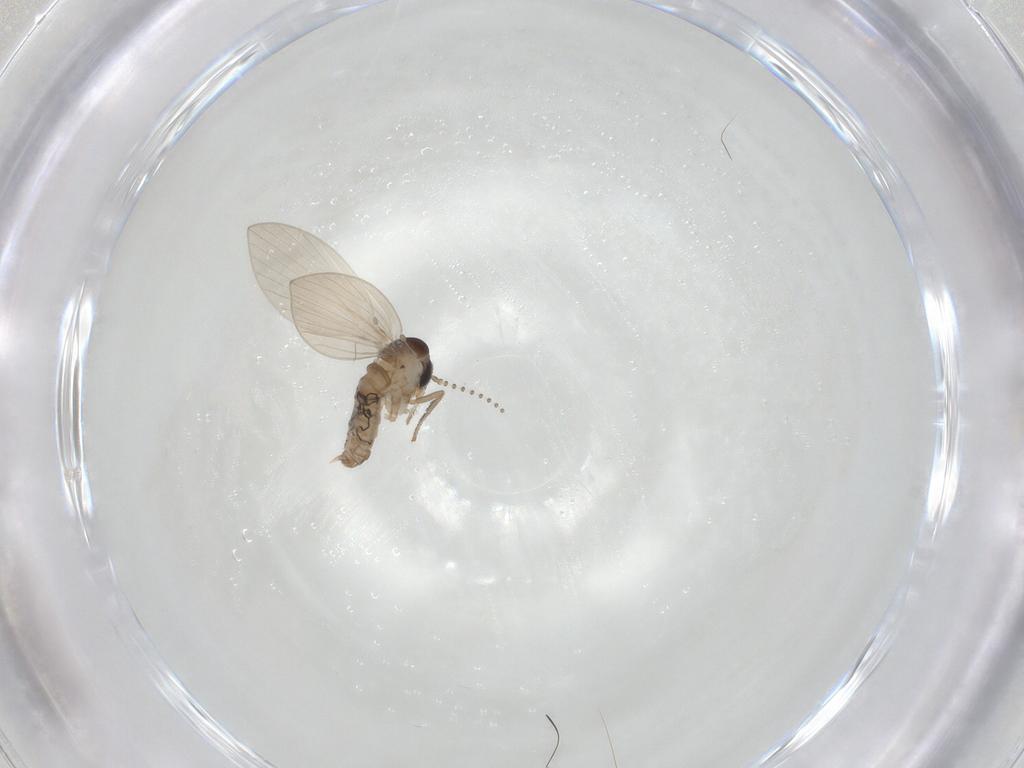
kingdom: Animalia
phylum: Arthropoda
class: Insecta
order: Diptera
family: Psychodidae
